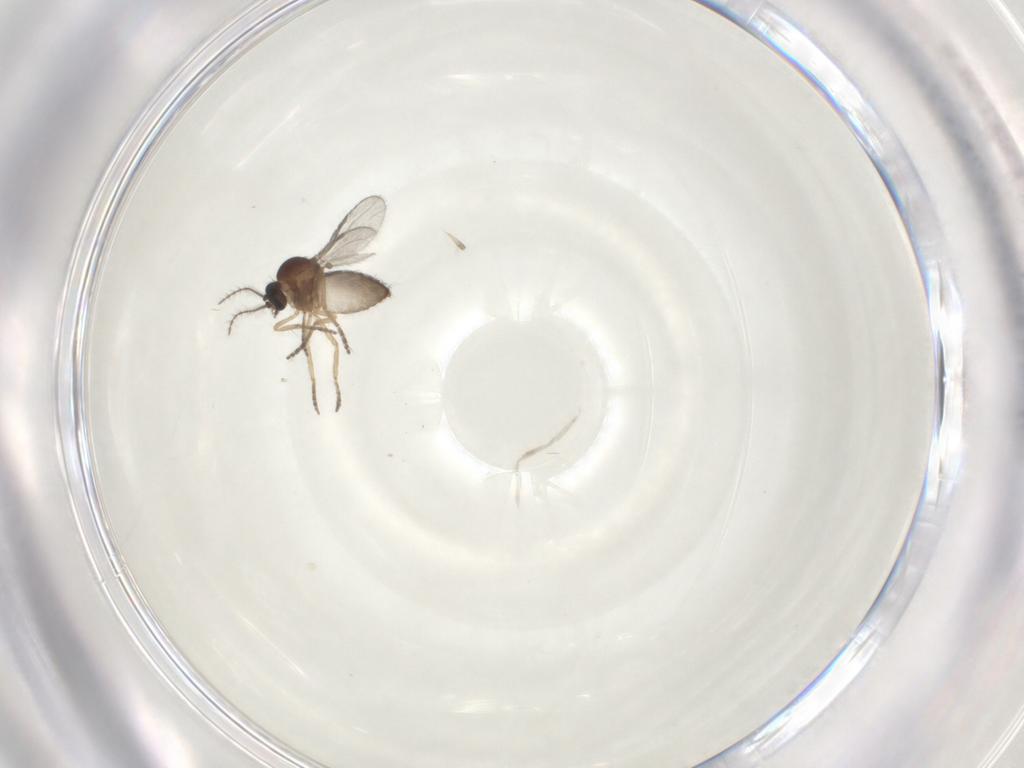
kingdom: Animalia
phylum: Arthropoda
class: Insecta
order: Diptera
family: Ceratopogonidae
